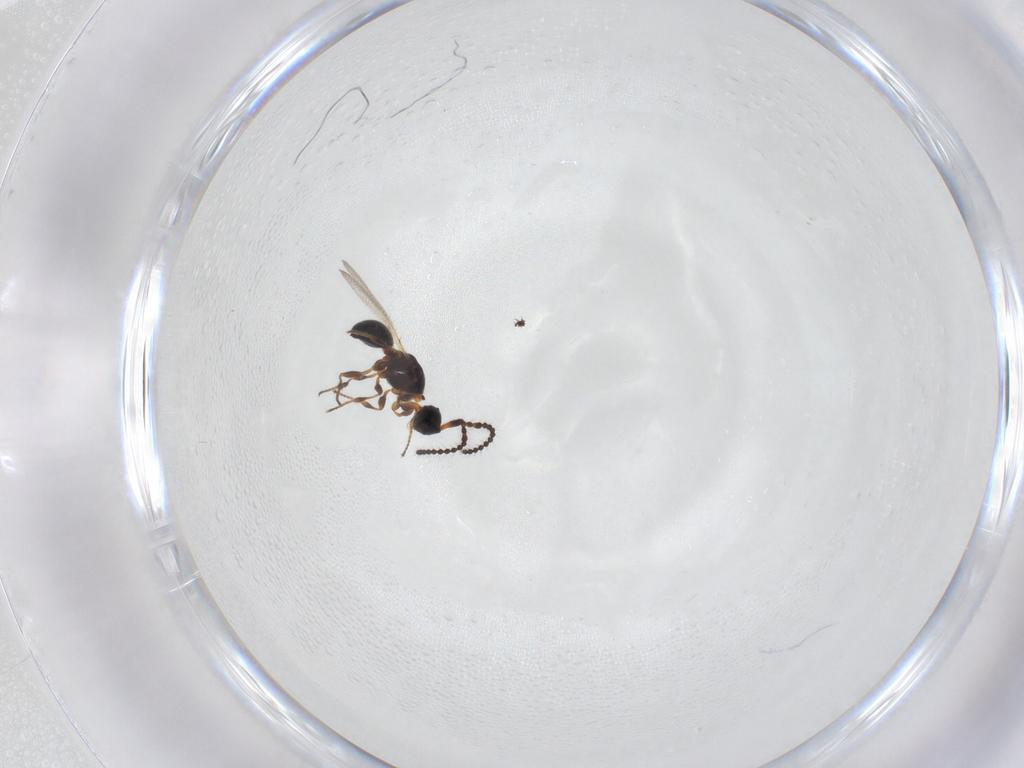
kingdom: Animalia
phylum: Arthropoda
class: Insecta
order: Hymenoptera
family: Diapriidae
